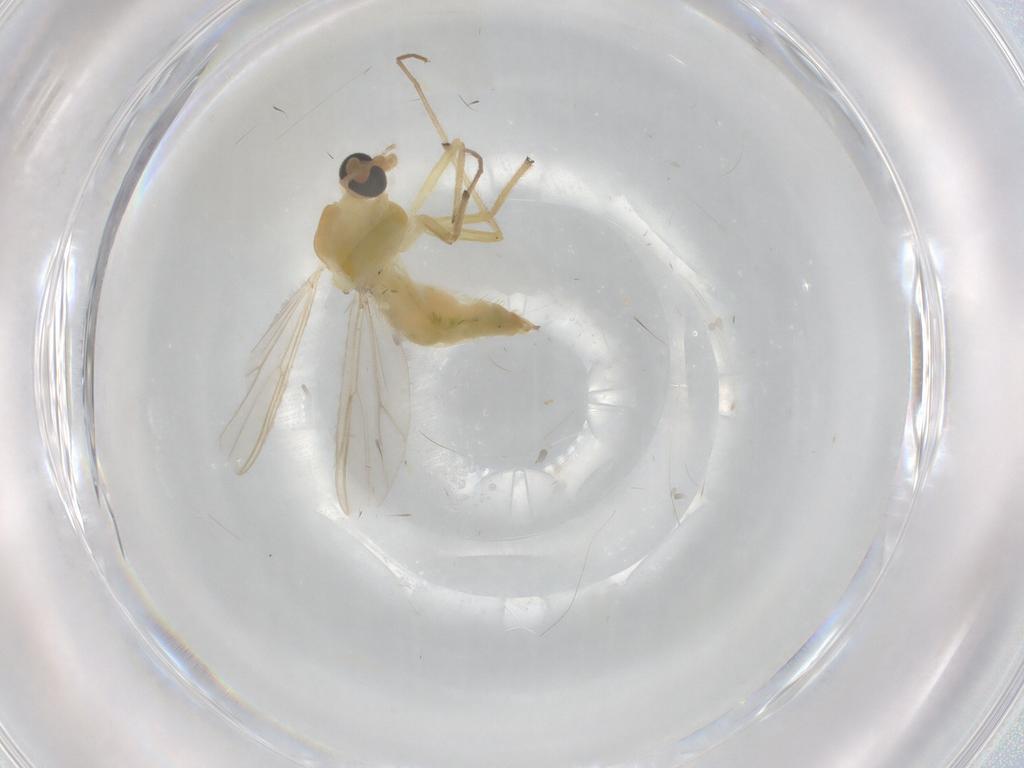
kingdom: Animalia
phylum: Arthropoda
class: Insecta
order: Diptera
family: Chironomidae
